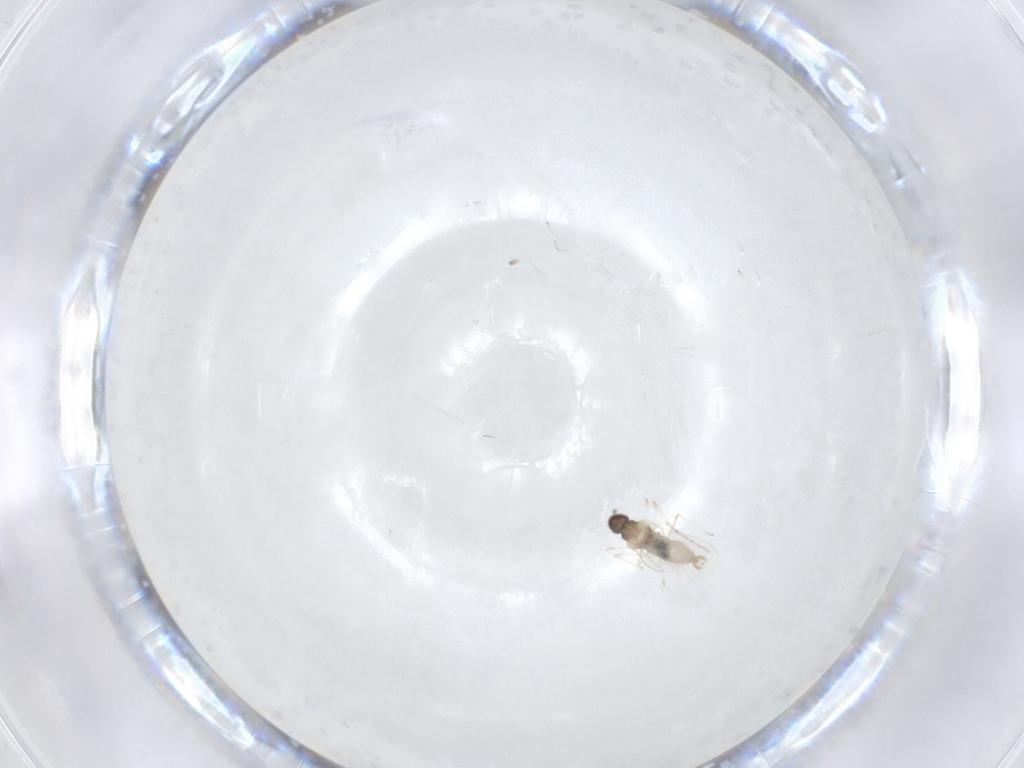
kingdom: Animalia
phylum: Arthropoda
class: Insecta
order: Diptera
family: Cecidomyiidae
